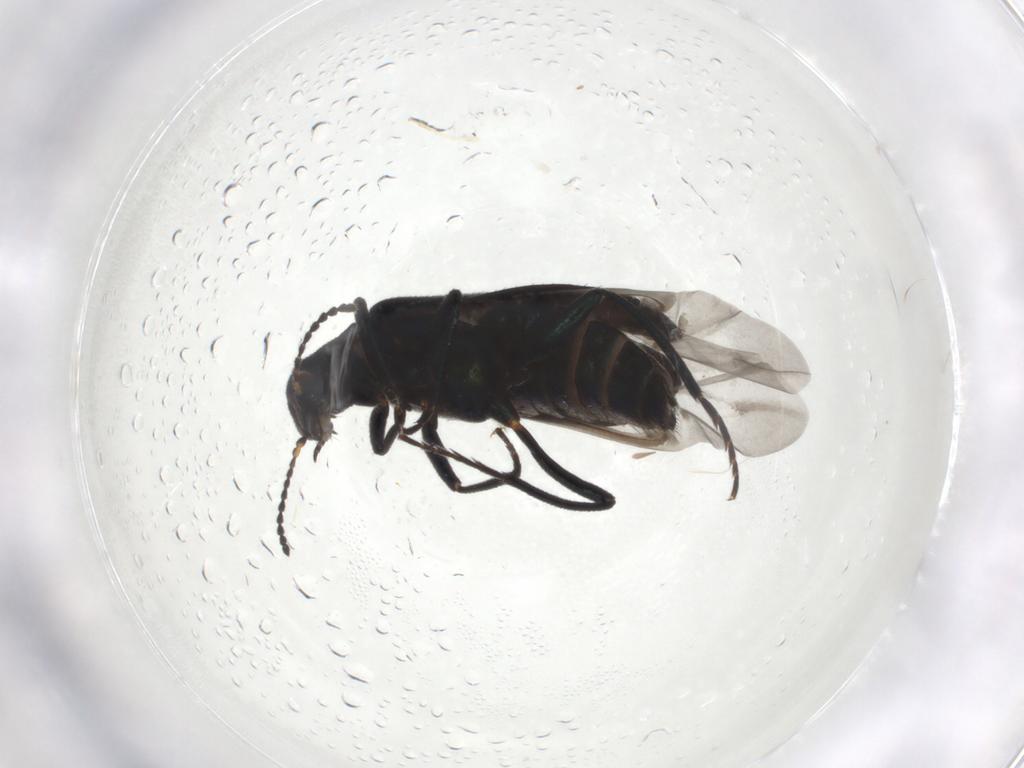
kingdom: Animalia
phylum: Arthropoda
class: Insecta
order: Coleoptera
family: Melyridae
